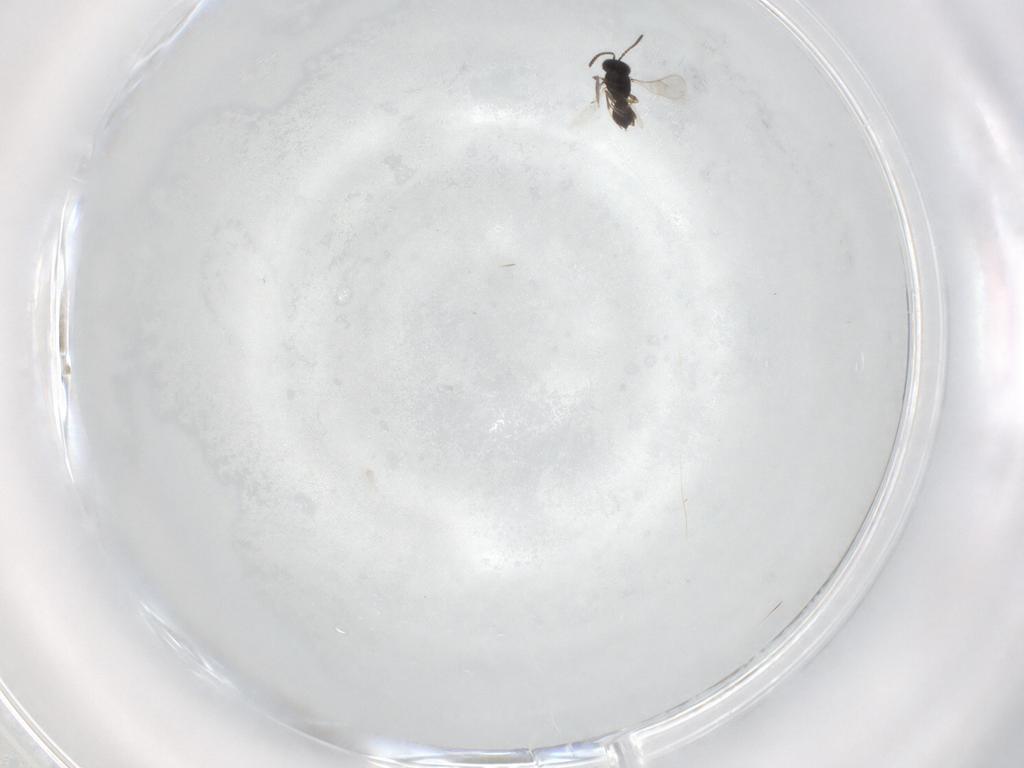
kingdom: Animalia
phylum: Arthropoda
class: Insecta
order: Hymenoptera
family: Scelionidae
